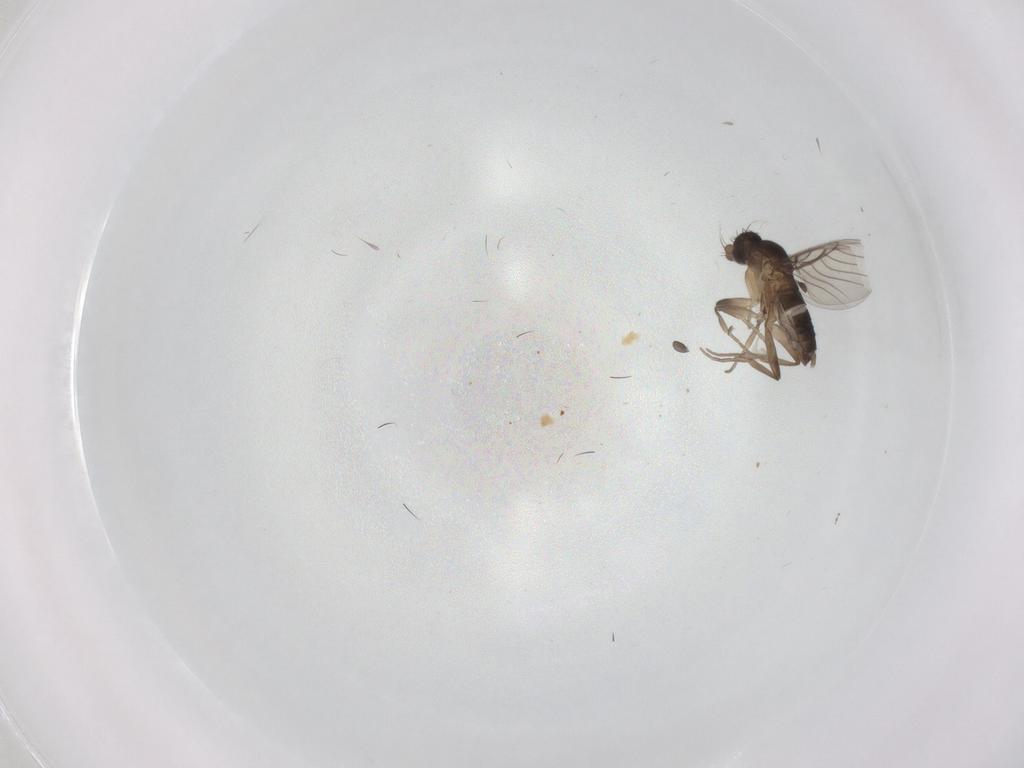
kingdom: Animalia
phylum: Arthropoda
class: Insecta
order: Diptera
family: Phoridae
